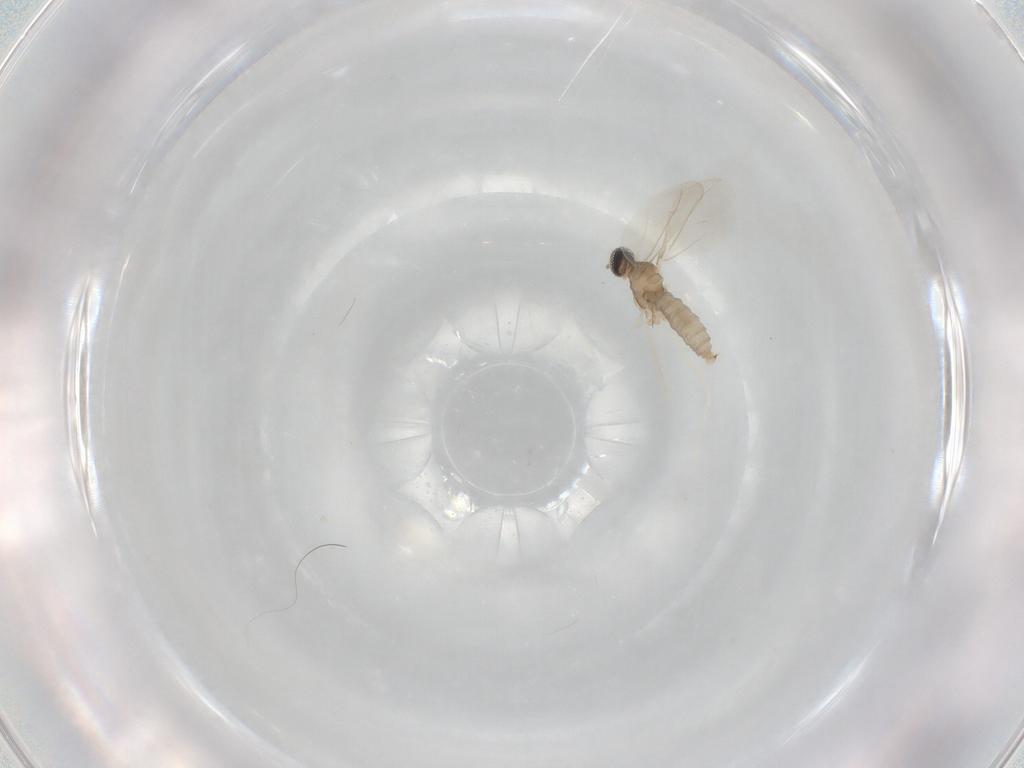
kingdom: Animalia
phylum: Arthropoda
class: Insecta
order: Diptera
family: Cecidomyiidae
